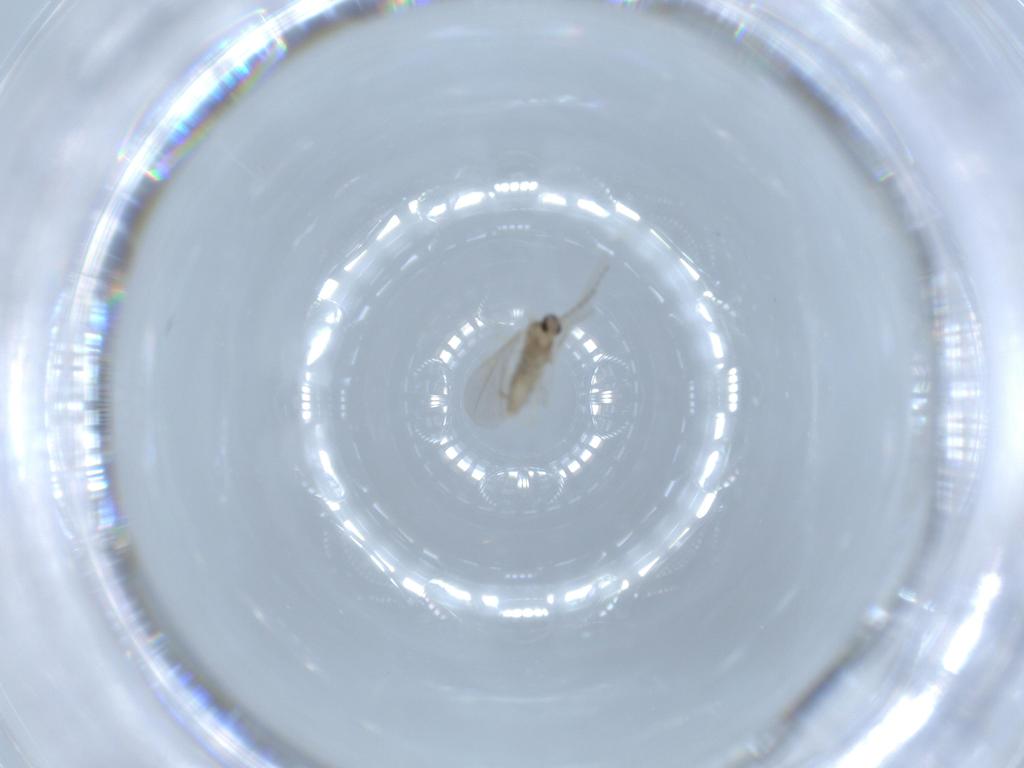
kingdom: Animalia
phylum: Arthropoda
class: Insecta
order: Diptera
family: Cecidomyiidae
